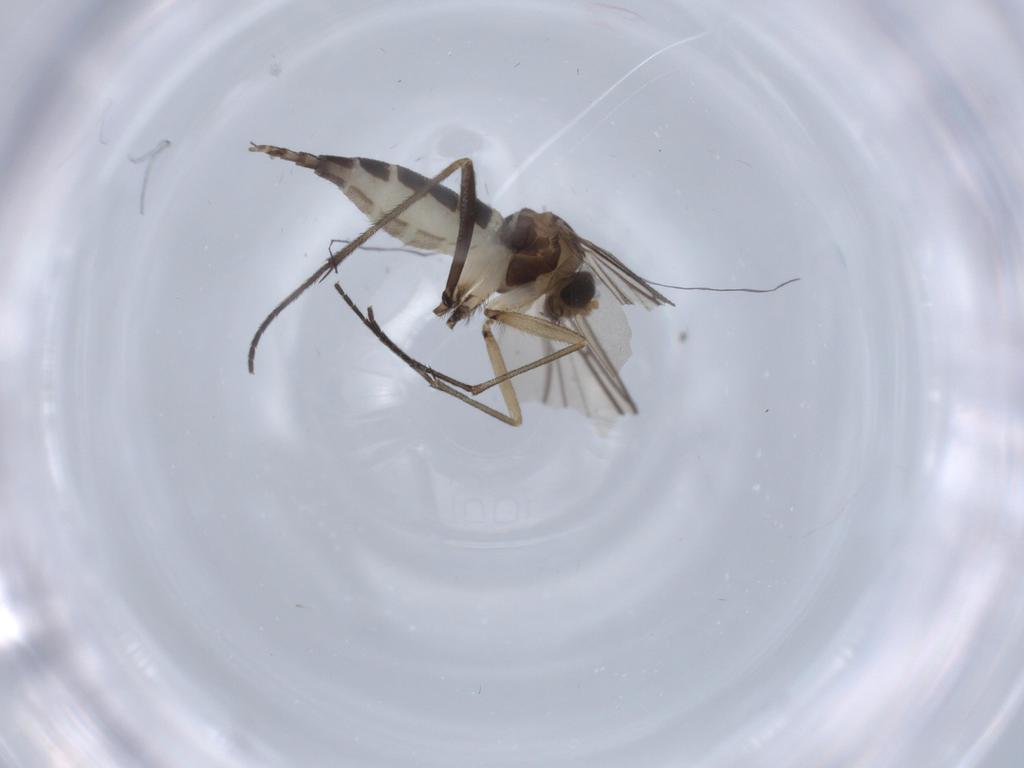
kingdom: Animalia
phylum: Arthropoda
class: Insecta
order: Diptera
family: Sciaridae
